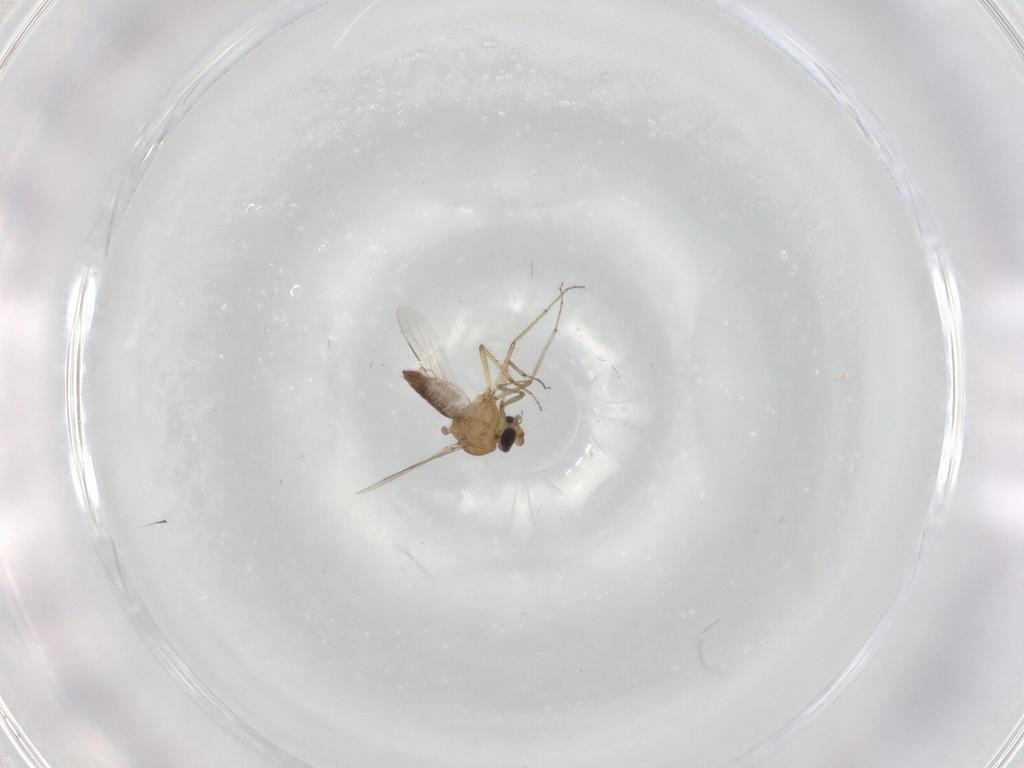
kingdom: Animalia
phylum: Arthropoda
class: Insecta
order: Diptera
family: Ceratopogonidae
